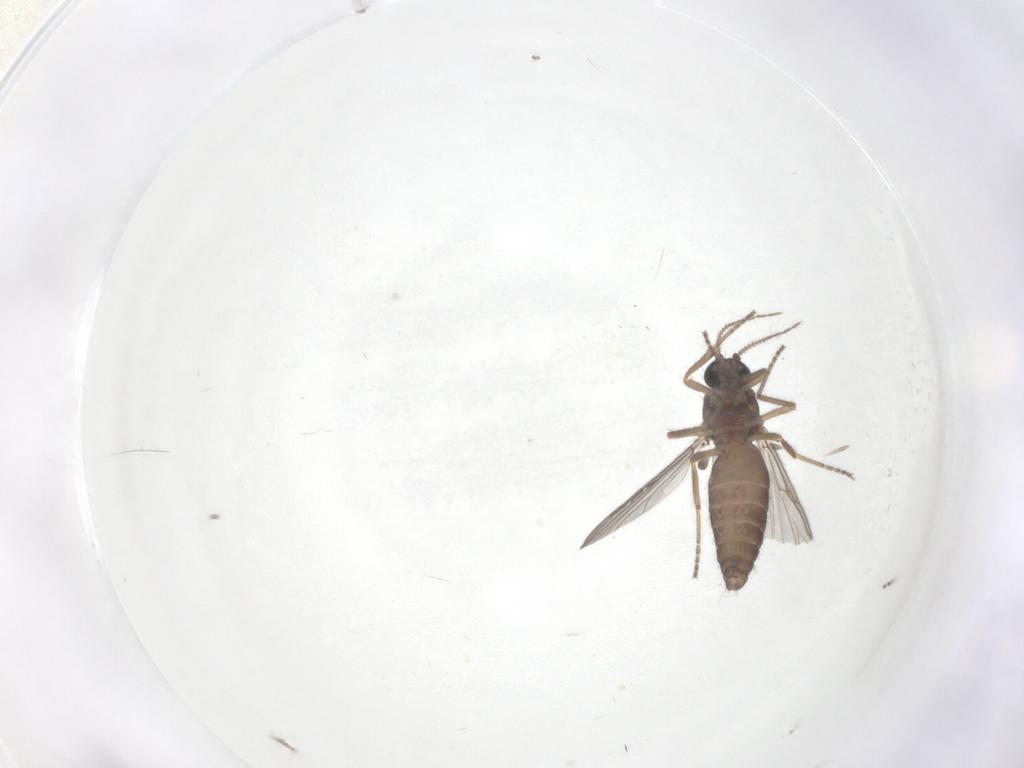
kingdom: Animalia
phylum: Arthropoda
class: Insecta
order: Diptera
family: Ceratopogonidae
